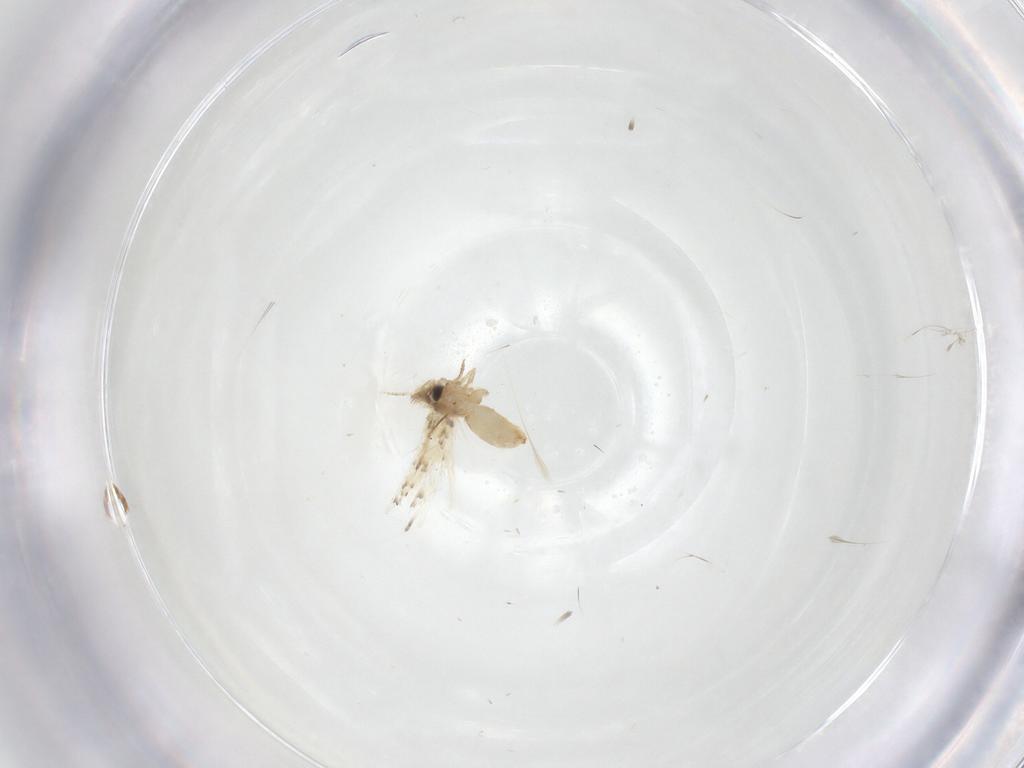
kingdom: Animalia
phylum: Arthropoda
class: Insecta
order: Lepidoptera
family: Crambidae
